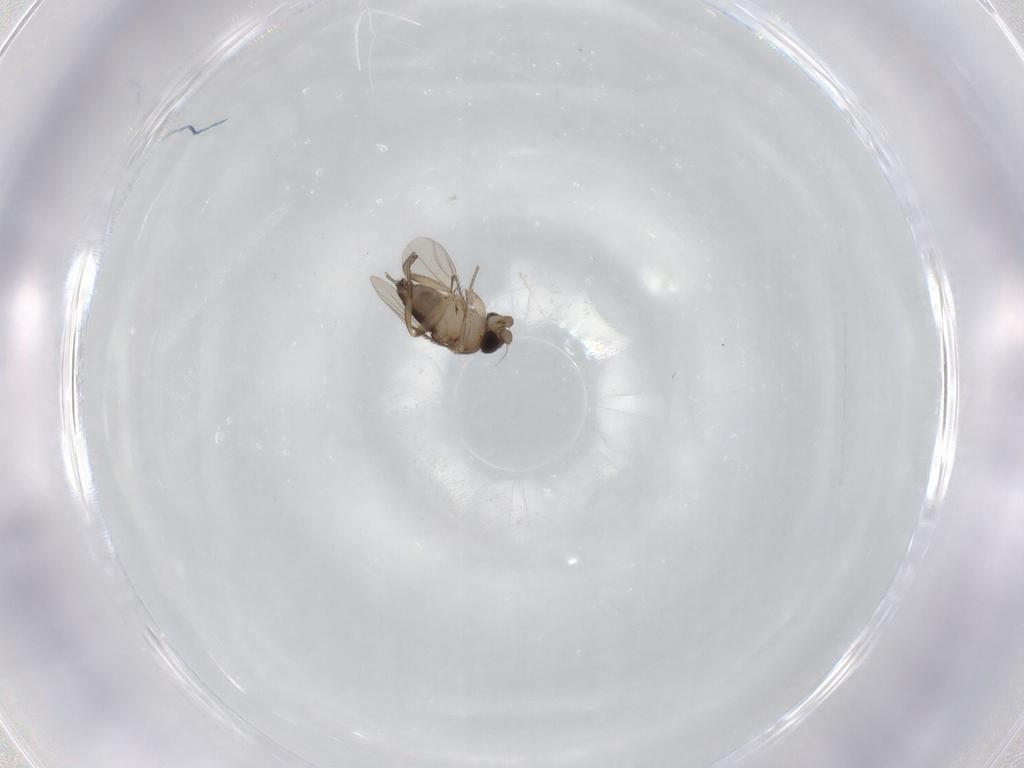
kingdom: Animalia
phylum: Arthropoda
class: Insecta
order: Diptera
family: Phoridae
